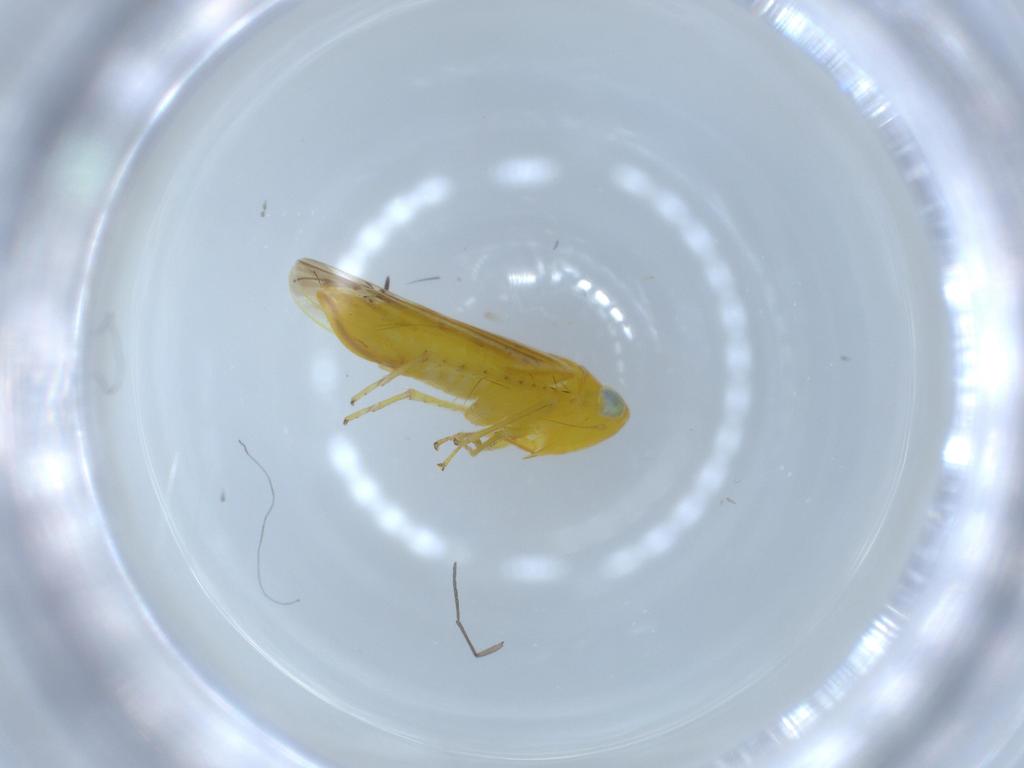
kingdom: Animalia
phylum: Arthropoda
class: Insecta
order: Hemiptera
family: Cicadellidae
